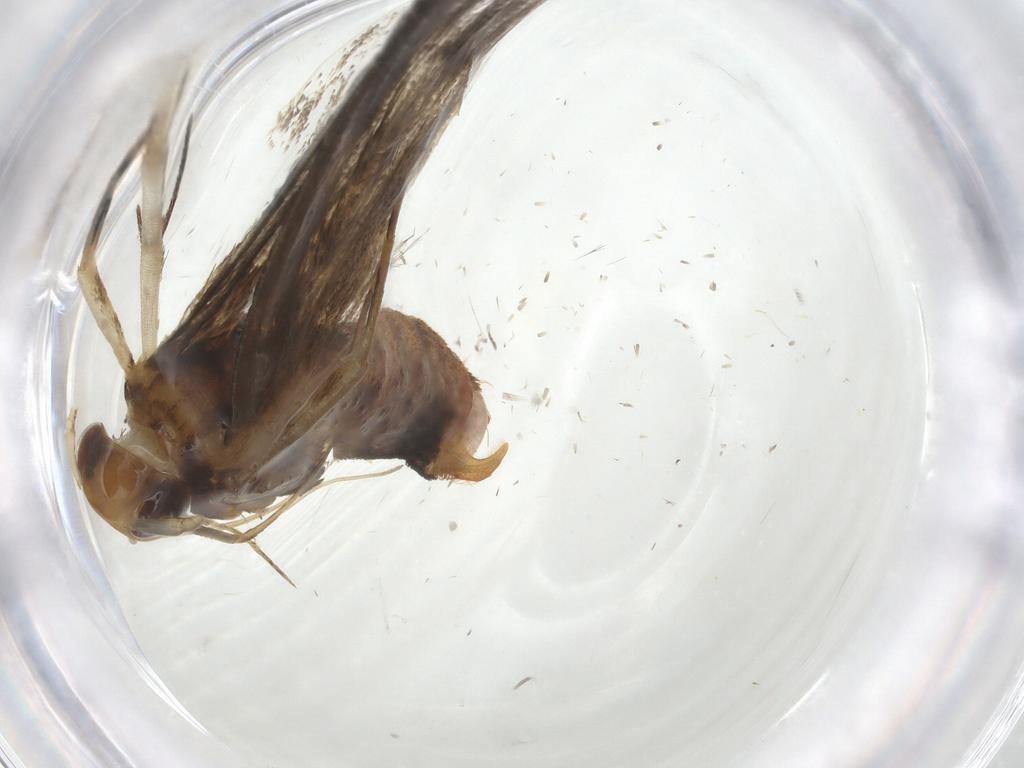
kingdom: Animalia
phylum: Arthropoda
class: Insecta
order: Lepidoptera
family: Lecithoceridae
